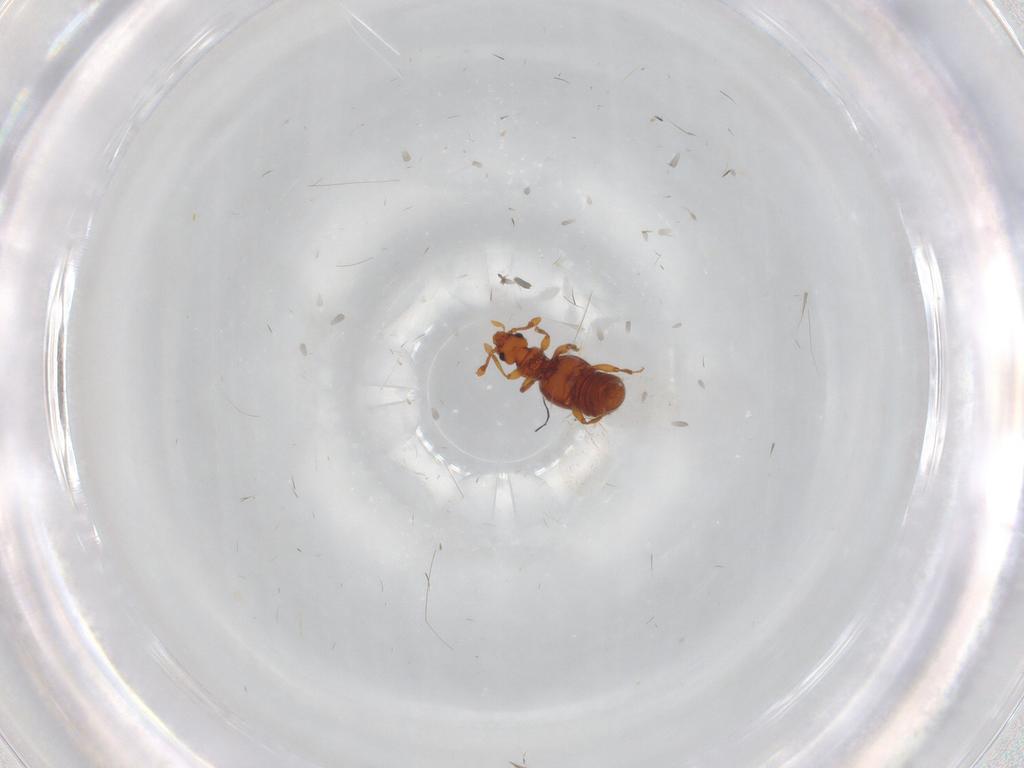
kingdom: Animalia
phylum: Arthropoda
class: Insecta
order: Coleoptera
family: Staphylinidae
